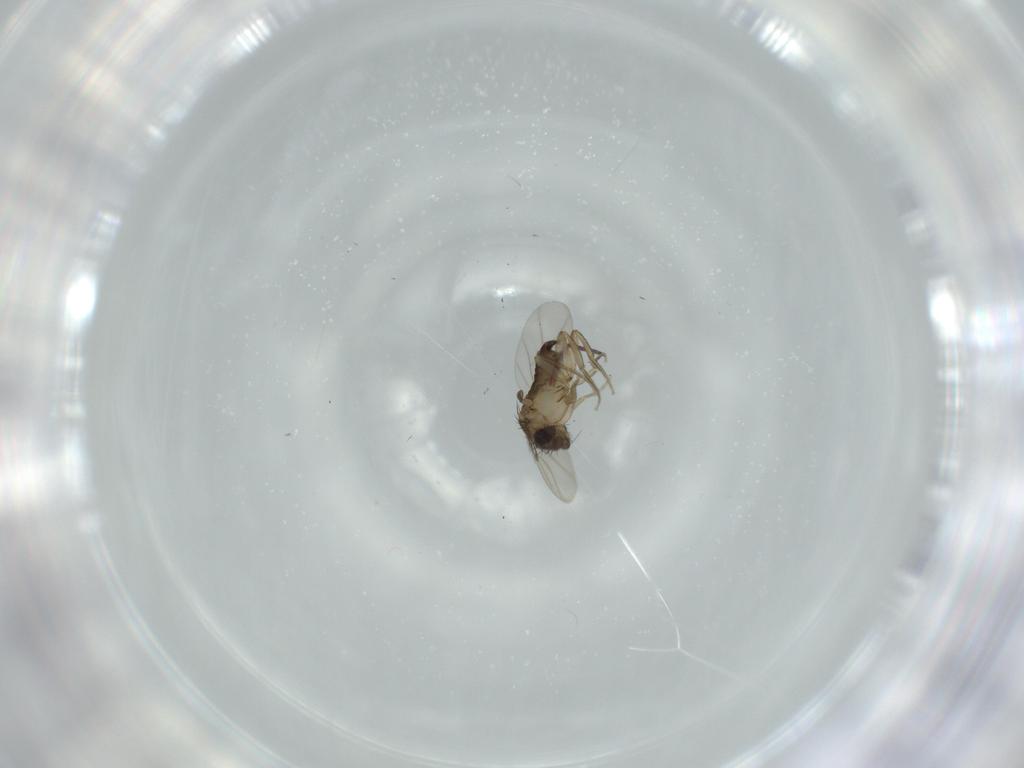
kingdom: Animalia
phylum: Arthropoda
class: Insecta
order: Diptera
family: Phoridae
